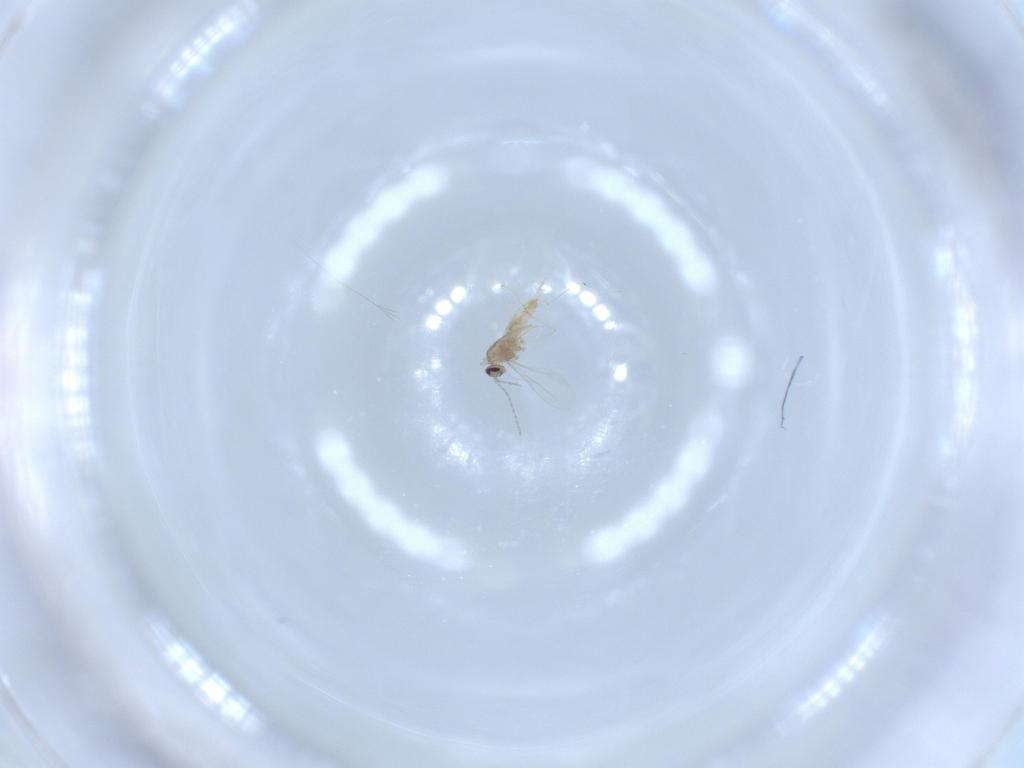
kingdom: Animalia
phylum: Arthropoda
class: Insecta
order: Diptera
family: Cecidomyiidae
